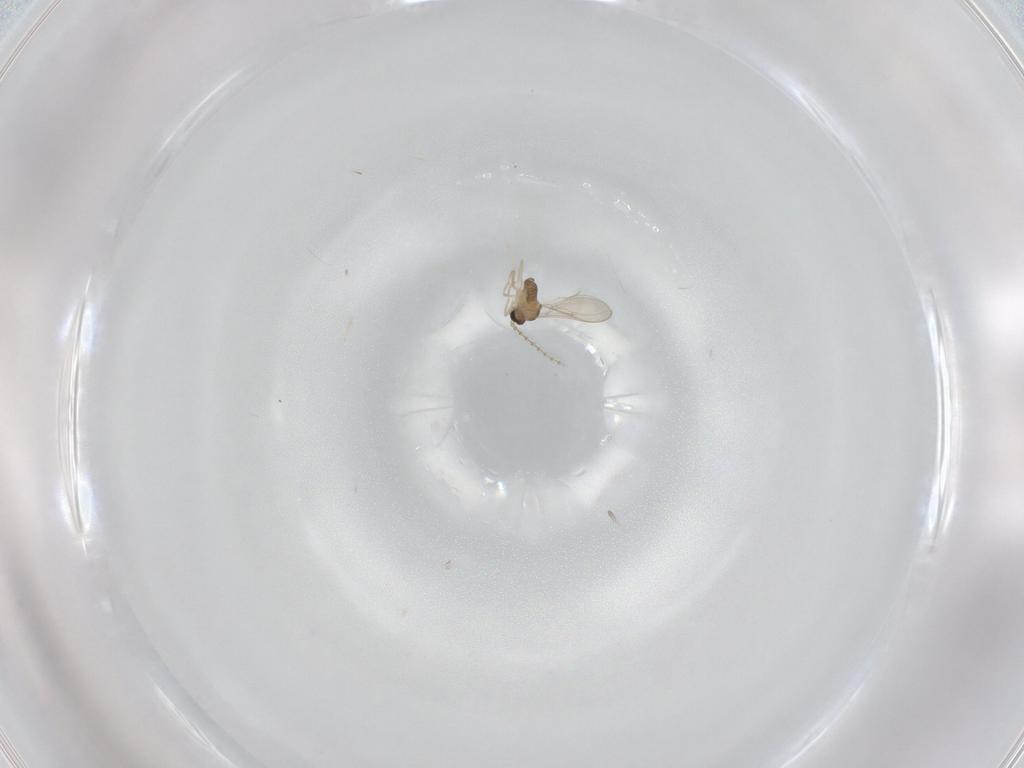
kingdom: Animalia
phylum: Arthropoda
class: Insecta
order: Diptera
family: Cecidomyiidae
